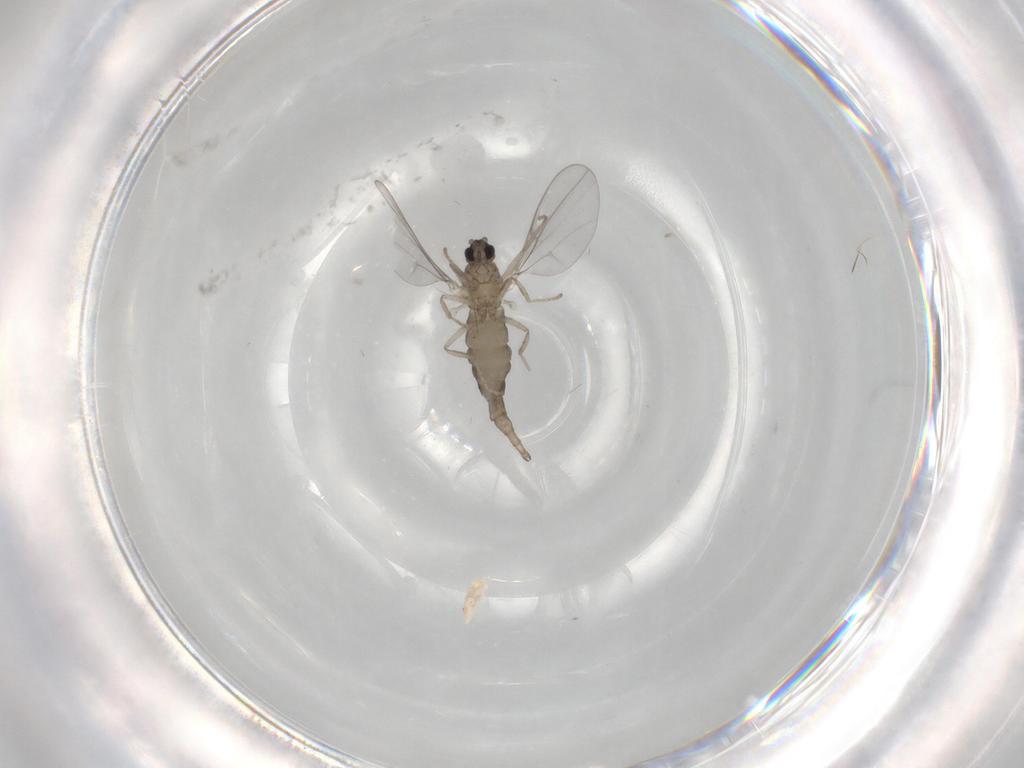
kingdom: Animalia
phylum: Arthropoda
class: Insecta
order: Diptera
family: Cecidomyiidae
